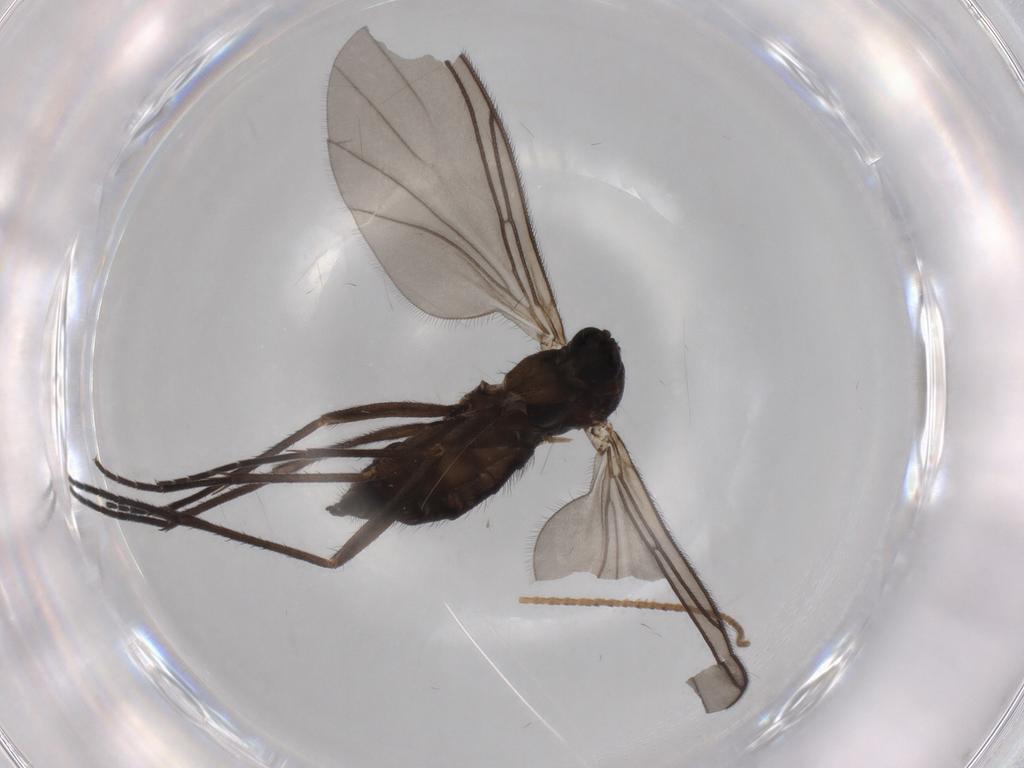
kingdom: Animalia
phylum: Arthropoda
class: Insecta
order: Diptera
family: Sciaridae
